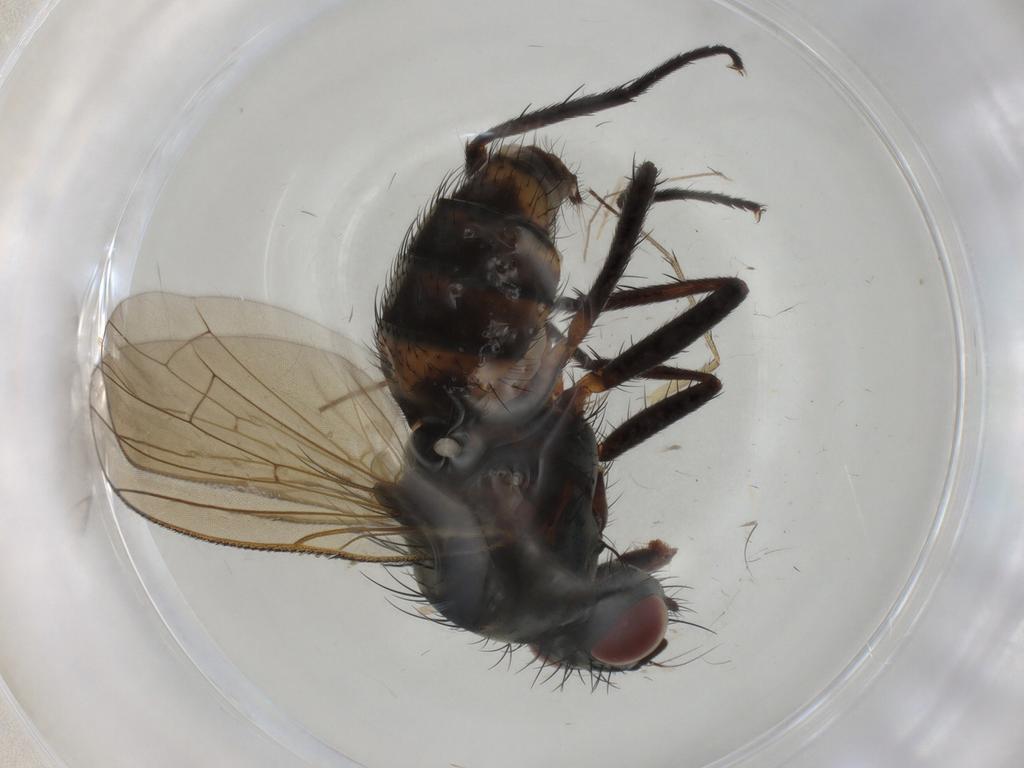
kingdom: Animalia
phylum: Arthropoda
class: Insecta
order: Diptera
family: Anthomyiidae
